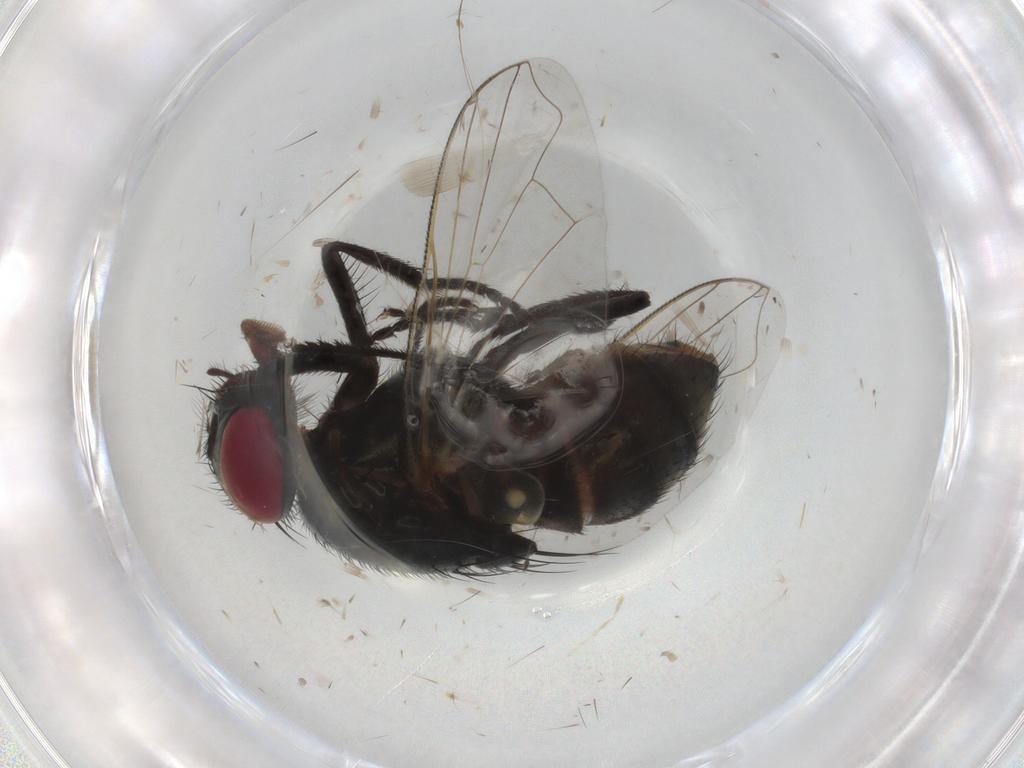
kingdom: Animalia
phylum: Arthropoda
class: Insecta
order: Diptera
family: Muscidae
